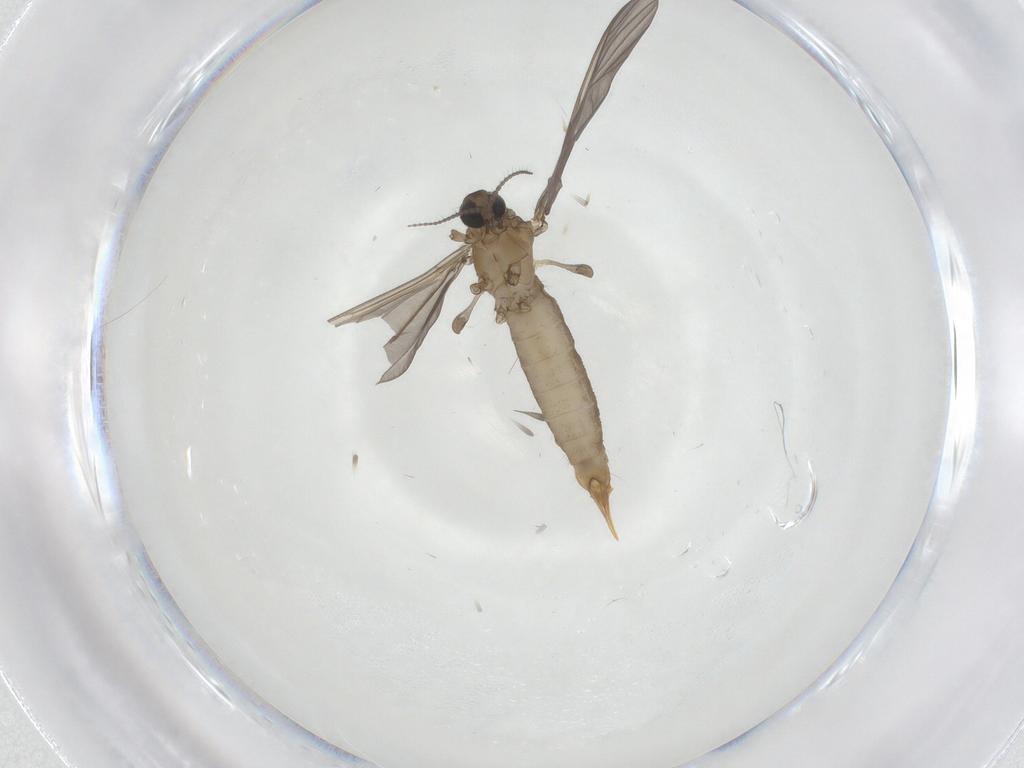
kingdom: Animalia
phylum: Arthropoda
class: Insecta
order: Diptera
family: Limoniidae
